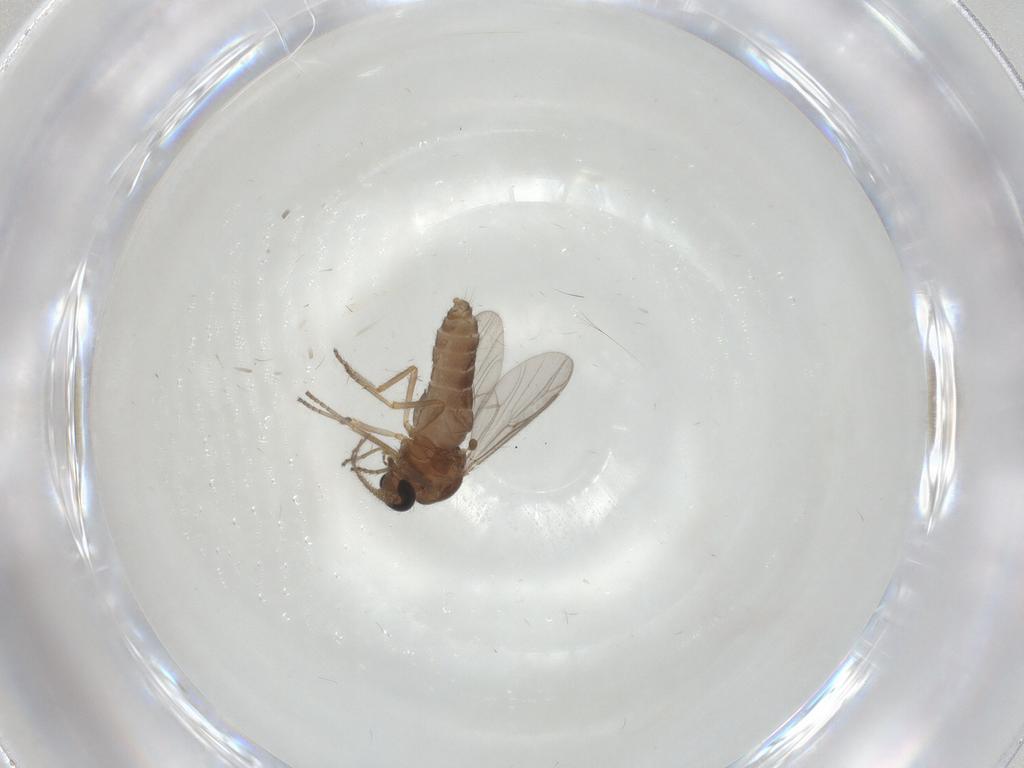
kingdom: Animalia
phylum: Arthropoda
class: Insecta
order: Diptera
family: Ceratopogonidae
